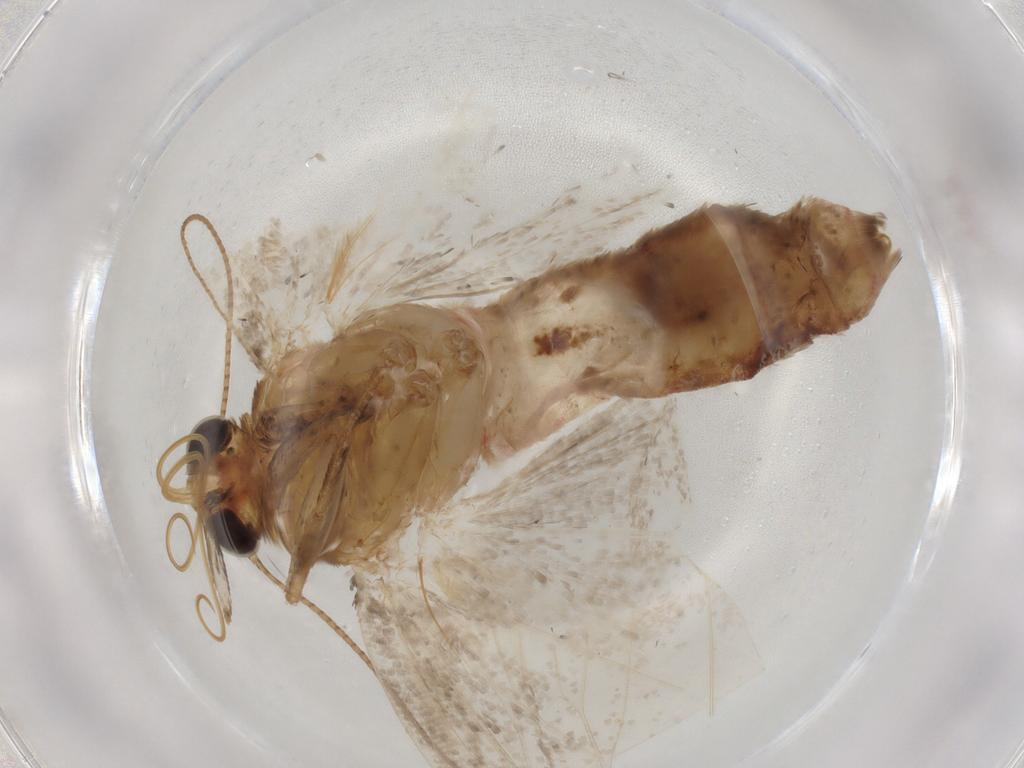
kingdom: Animalia
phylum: Arthropoda
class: Insecta
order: Lepidoptera
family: Erebidae
